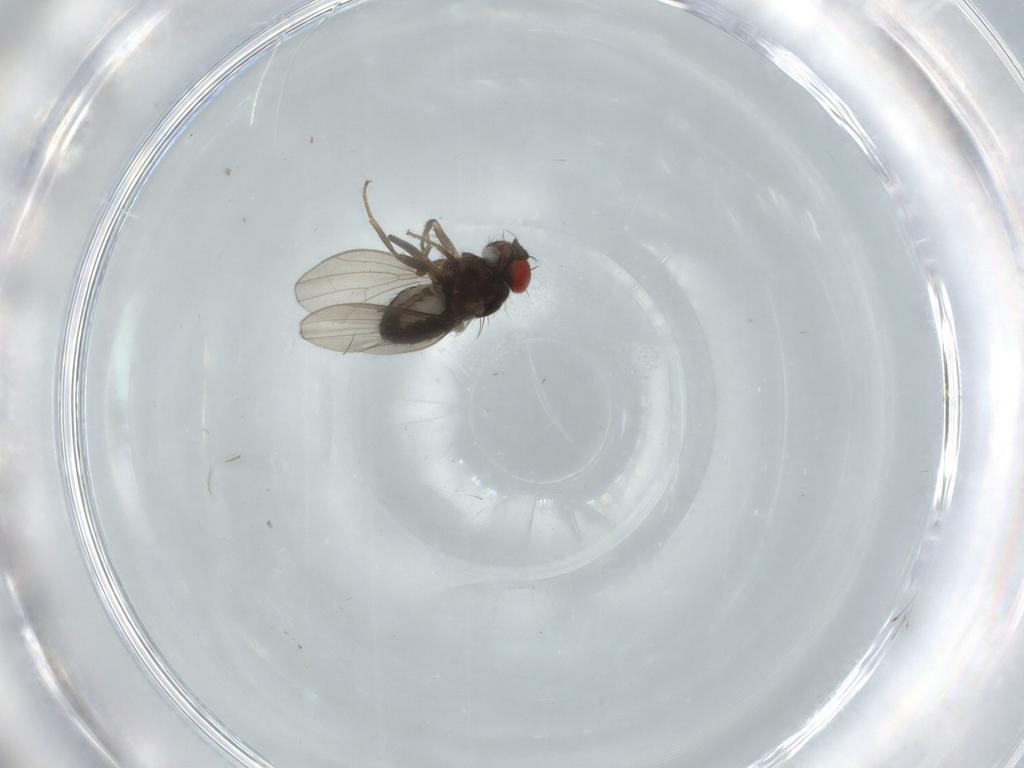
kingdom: Animalia
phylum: Arthropoda
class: Insecta
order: Diptera
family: Drosophilidae
